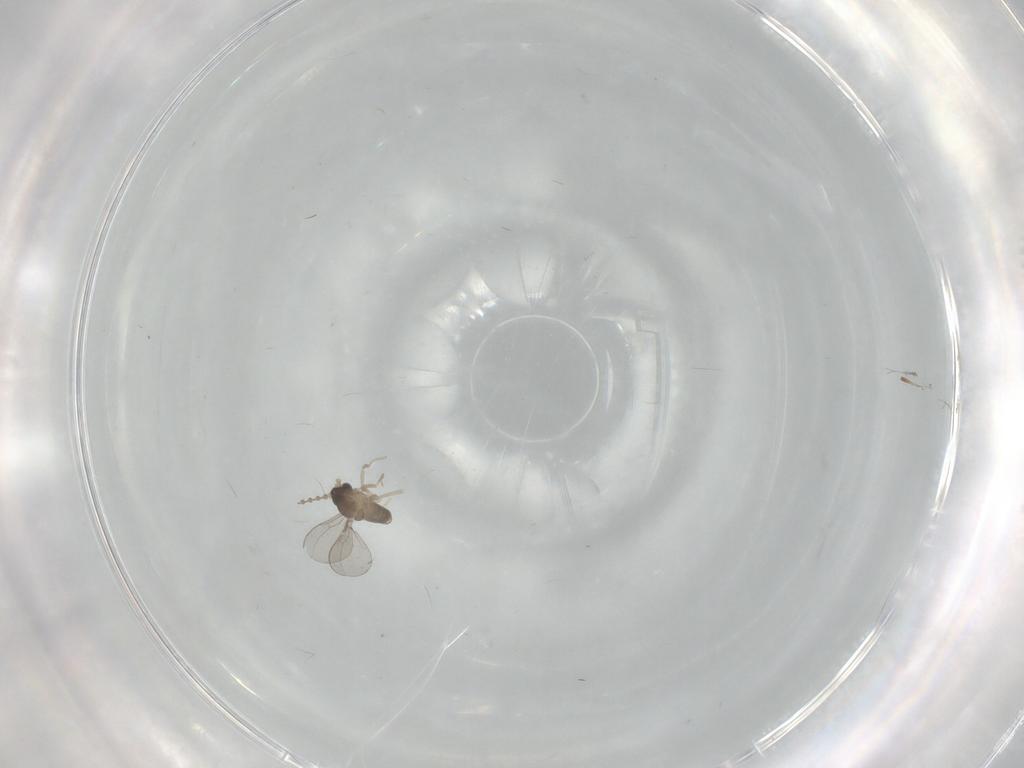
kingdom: Animalia
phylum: Arthropoda
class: Insecta
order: Diptera
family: Cecidomyiidae
